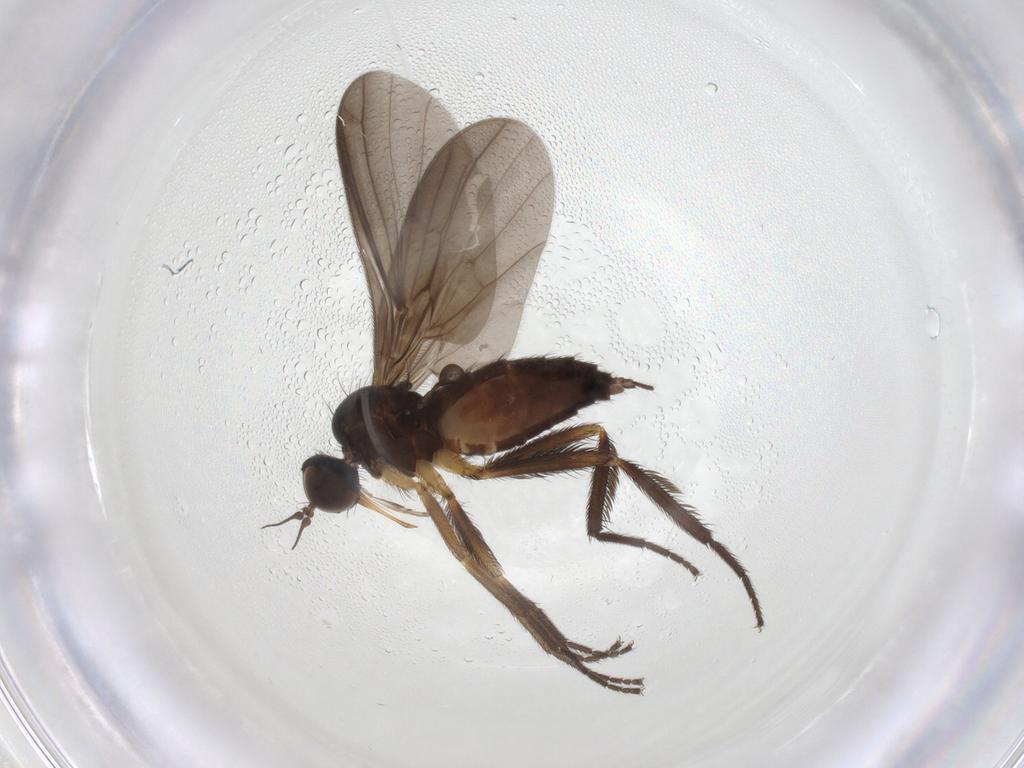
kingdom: Animalia
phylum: Arthropoda
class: Insecta
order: Diptera
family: Empididae
